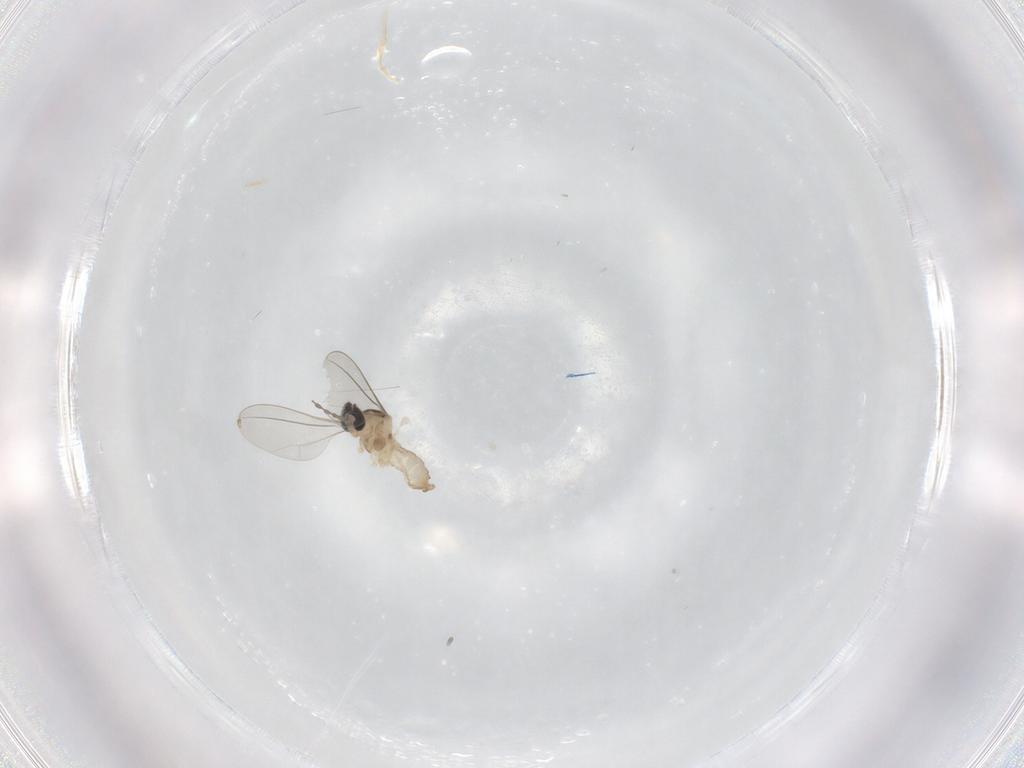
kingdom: Animalia
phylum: Arthropoda
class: Insecta
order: Diptera
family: Cecidomyiidae
